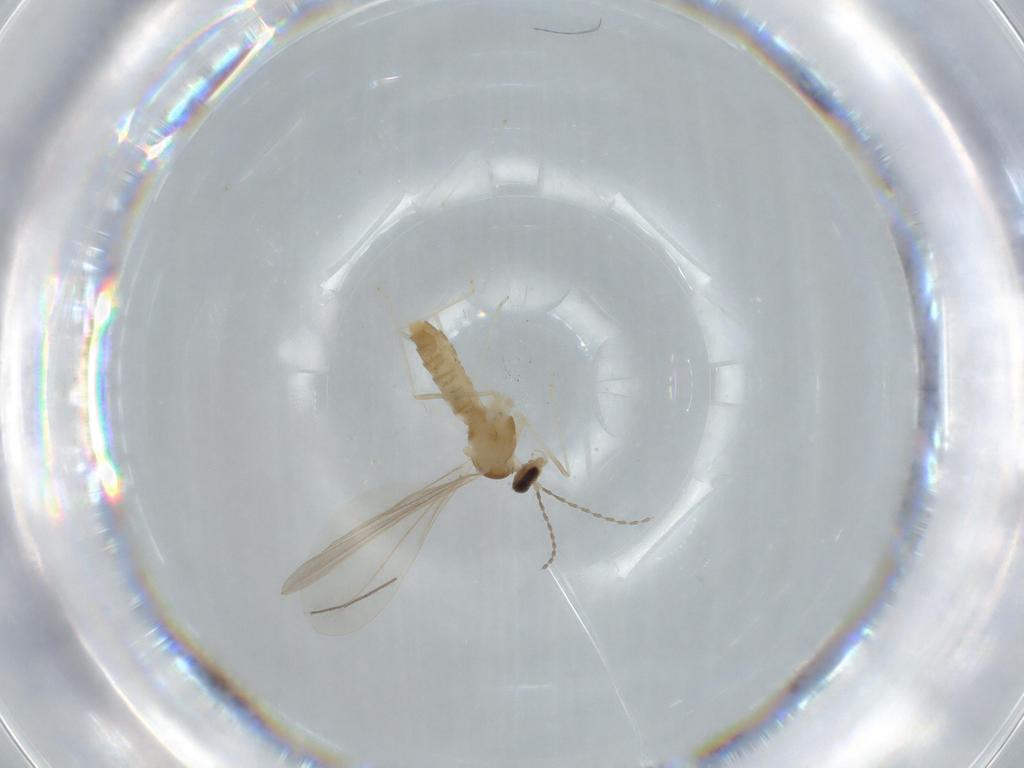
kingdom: Animalia
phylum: Arthropoda
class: Insecta
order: Diptera
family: Cecidomyiidae
